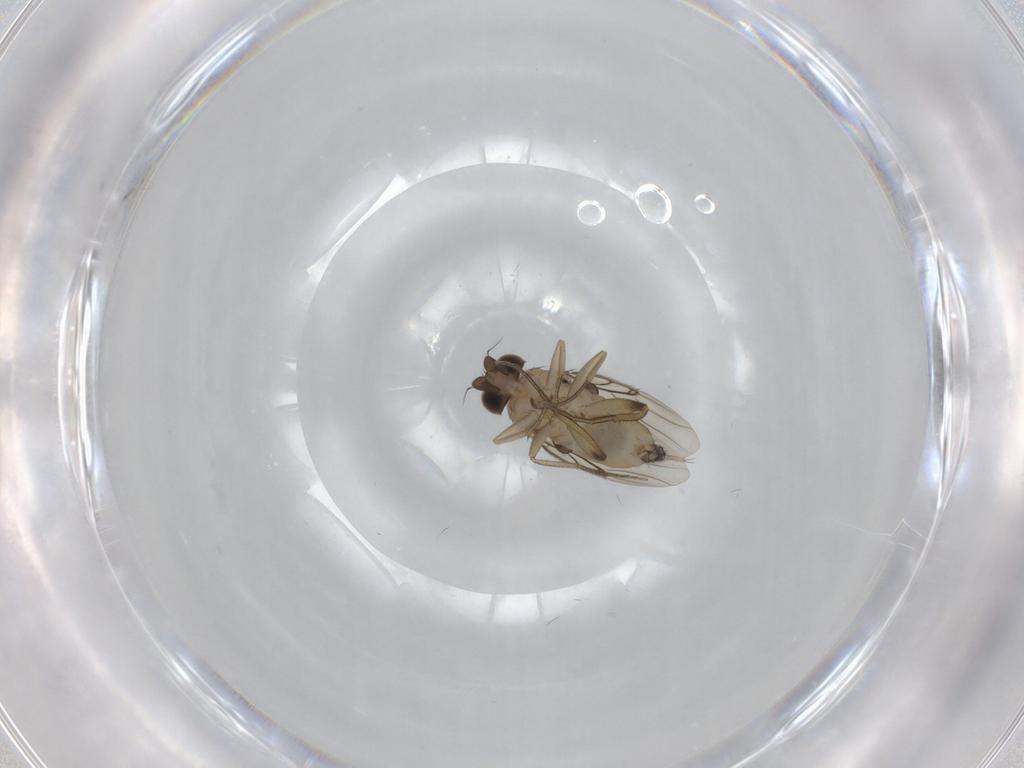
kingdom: Animalia
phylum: Arthropoda
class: Insecta
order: Diptera
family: Phoridae
